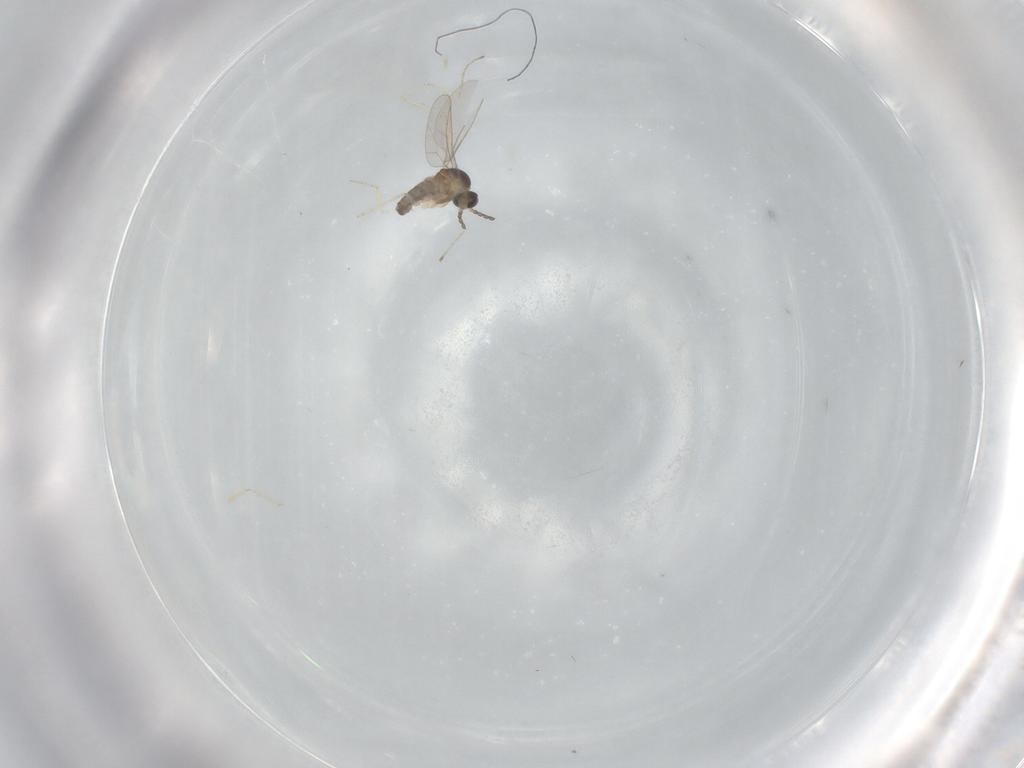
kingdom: Animalia
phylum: Arthropoda
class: Insecta
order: Diptera
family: Cecidomyiidae
